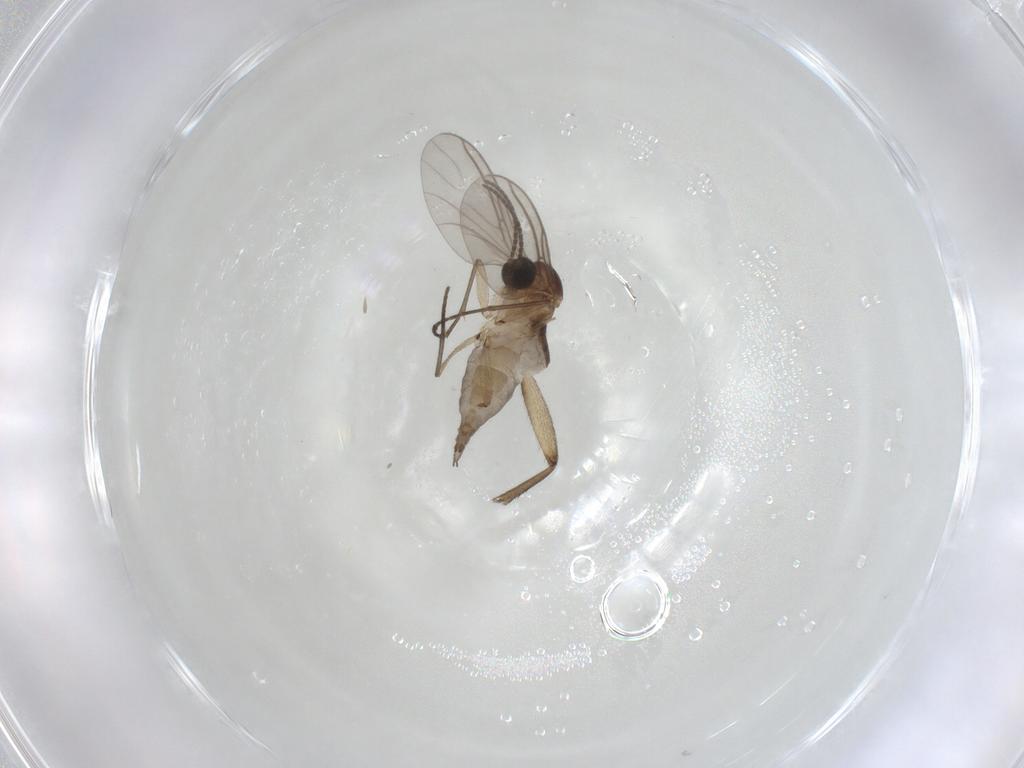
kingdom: Animalia
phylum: Arthropoda
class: Insecta
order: Diptera
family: Sciaridae
